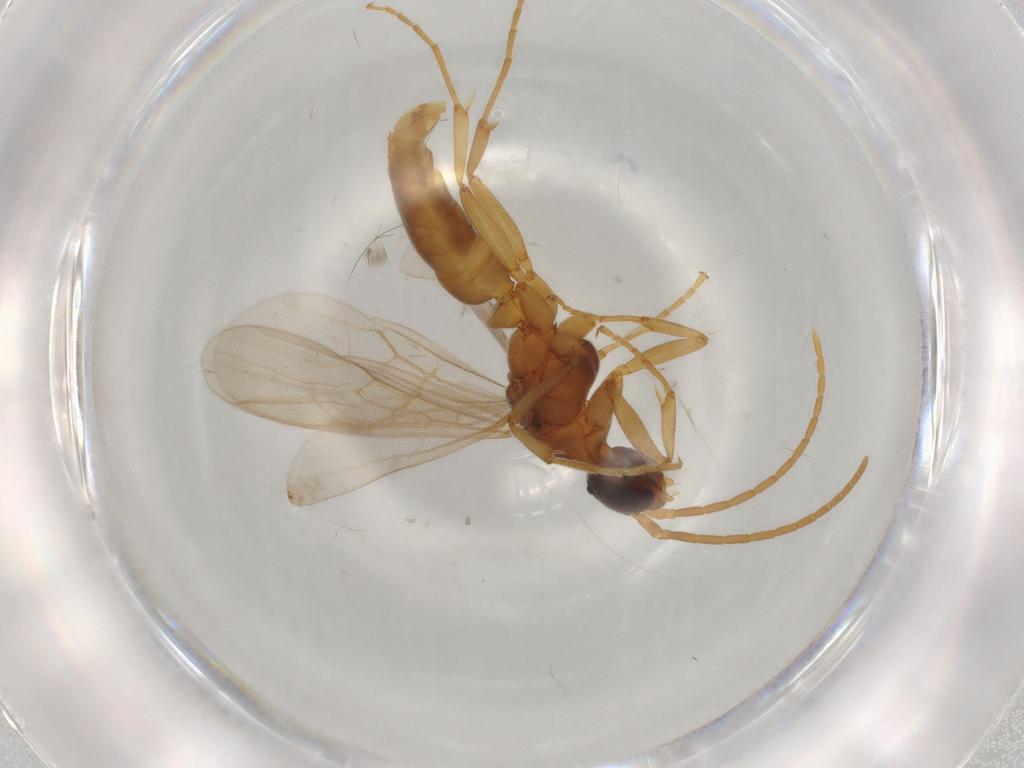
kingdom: Animalia
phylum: Arthropoda
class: Insecta
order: Hymenoptera
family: Formicidae
